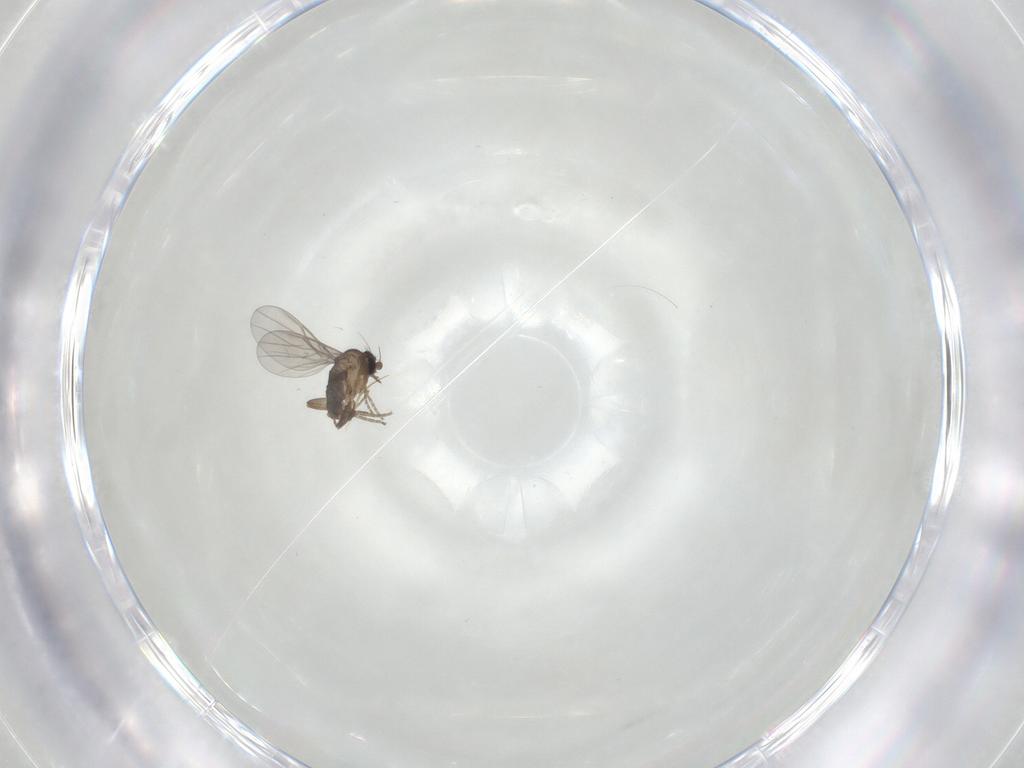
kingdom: Animalia
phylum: Arthropoda
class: Insecta
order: Diptera
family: Phoridae
